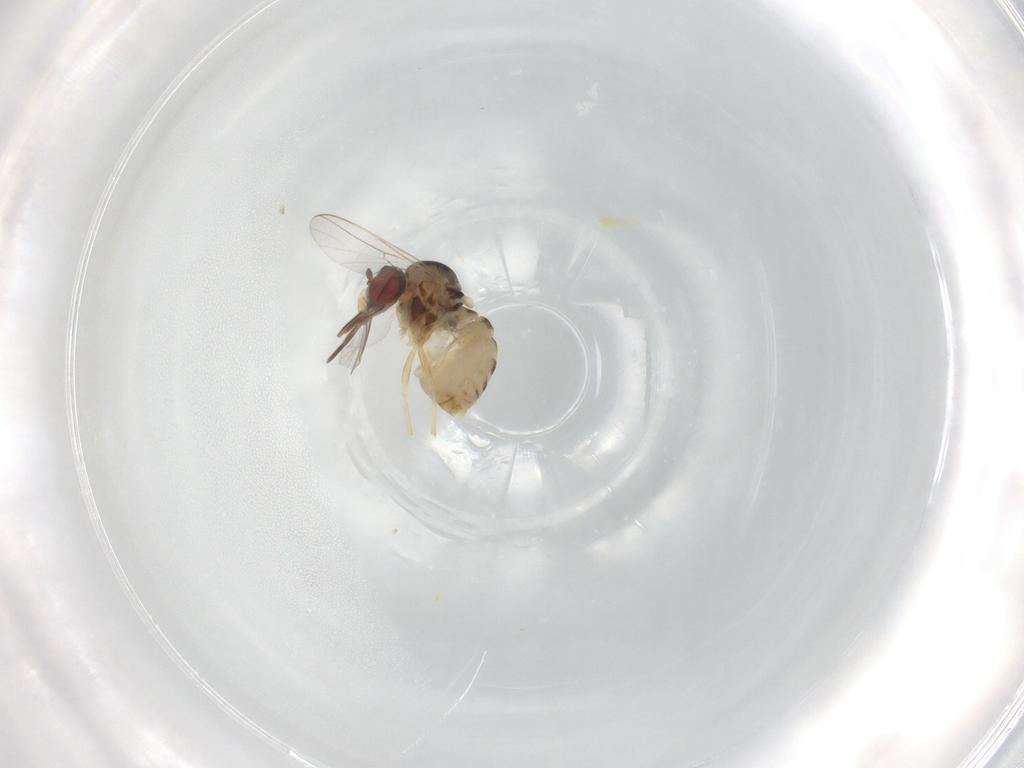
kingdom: Animalia
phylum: Arthropoda
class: Insecta
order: Diptera
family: Bombyliidae
